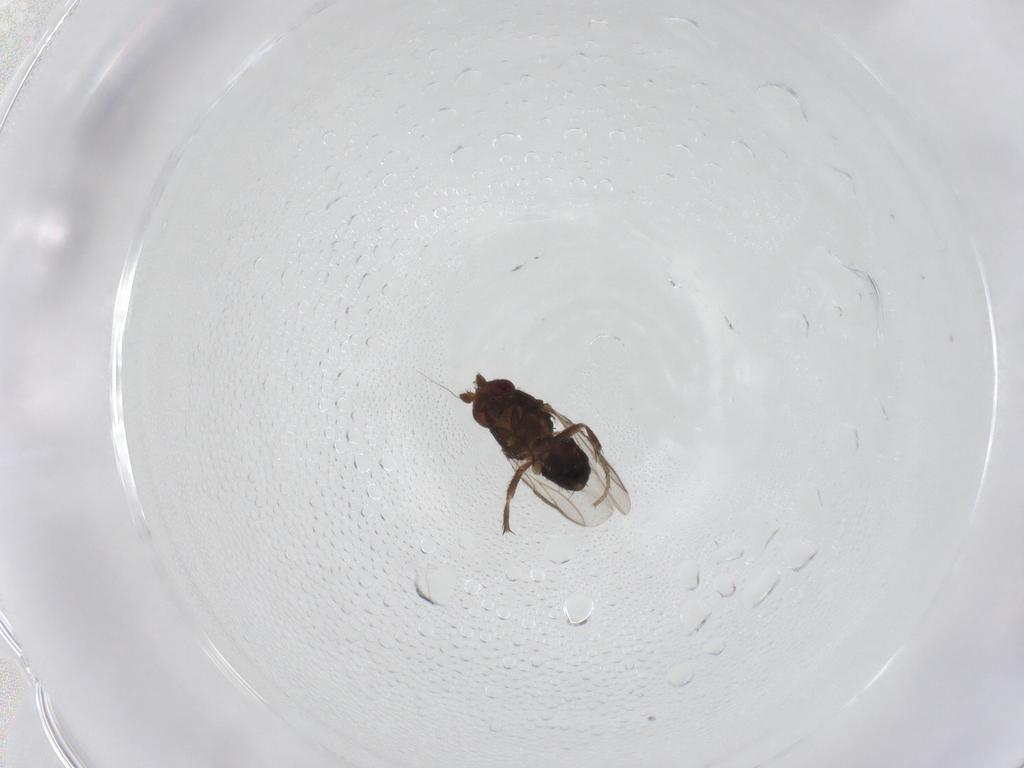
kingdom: Animalia
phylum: Arthropoda
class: Insecta
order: Diptera
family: Sphaeroceridae
